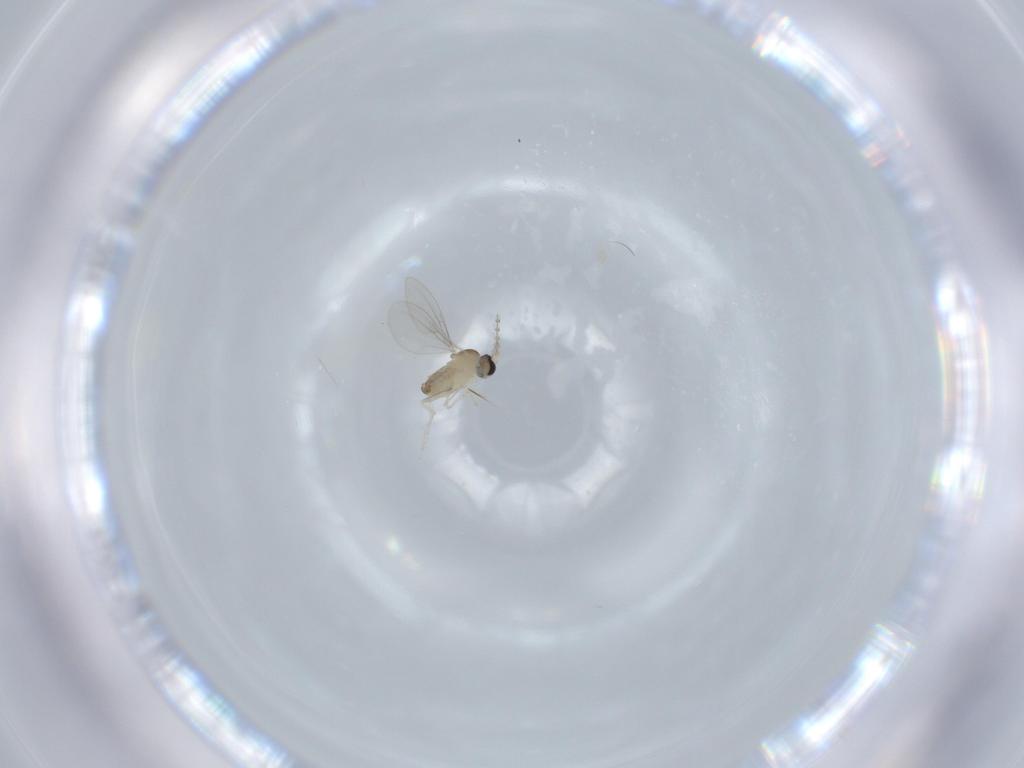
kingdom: Animalia
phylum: Arthropoda
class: Insecta
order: Diptera
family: Cecidomyiidae
